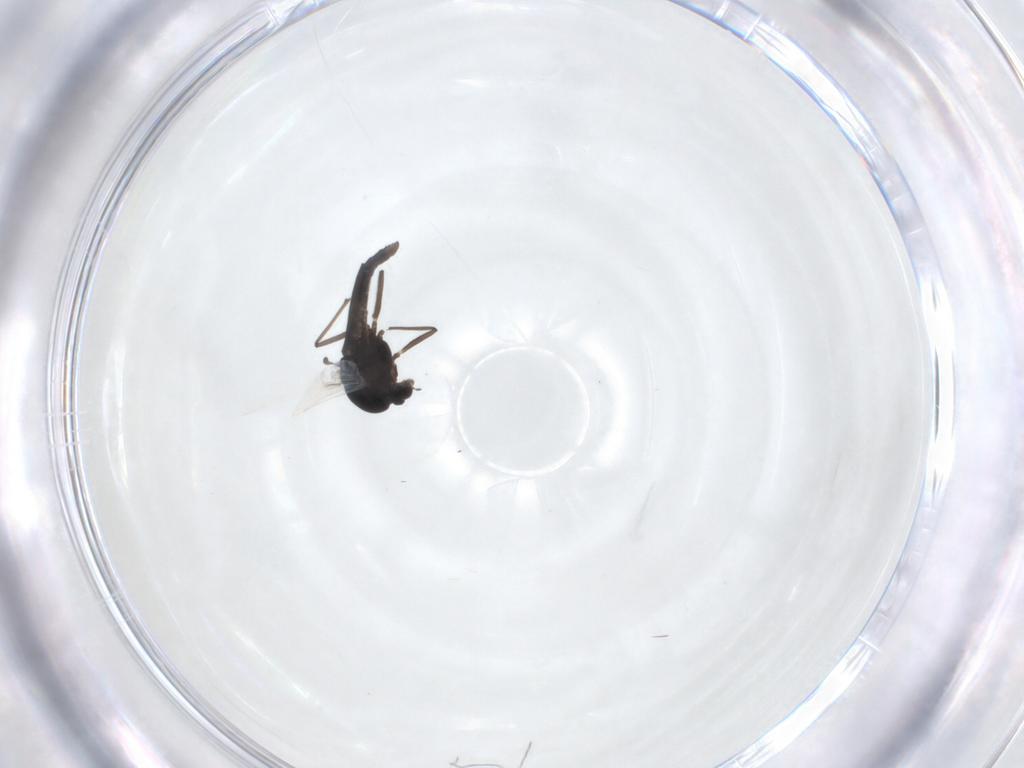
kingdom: Animalia
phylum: Arthropoda
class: Insecta
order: Diptera
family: Chironomidae
